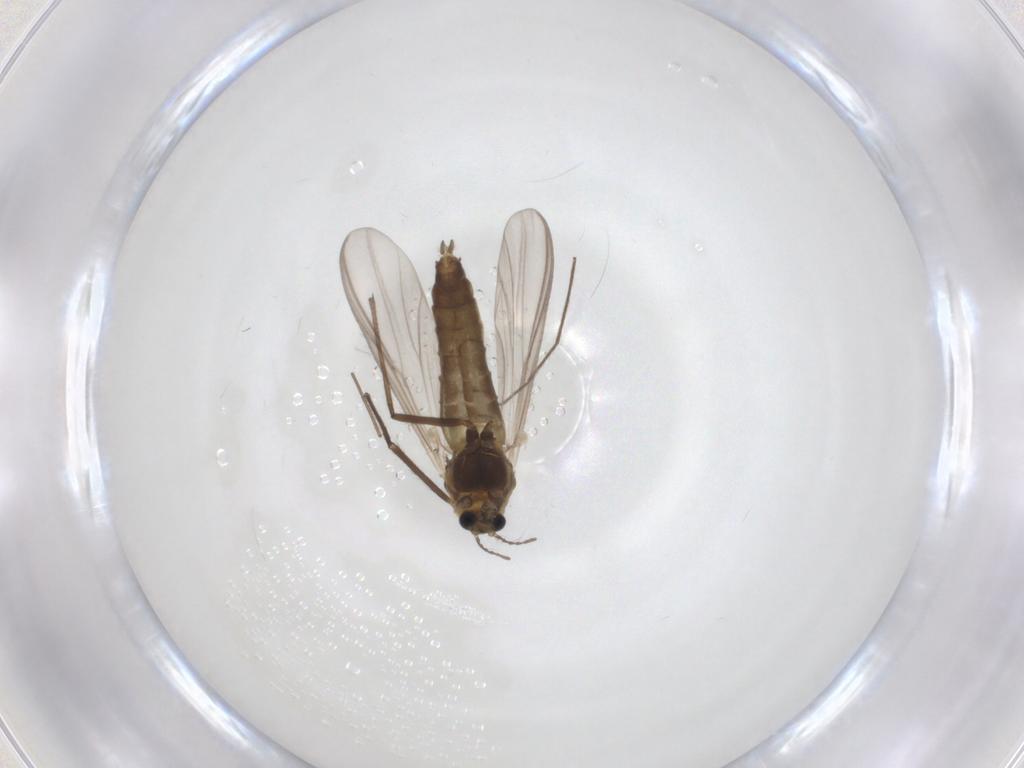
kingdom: Animalia
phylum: Arthropoda
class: Insecta
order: Diptera
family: Chironomidae
